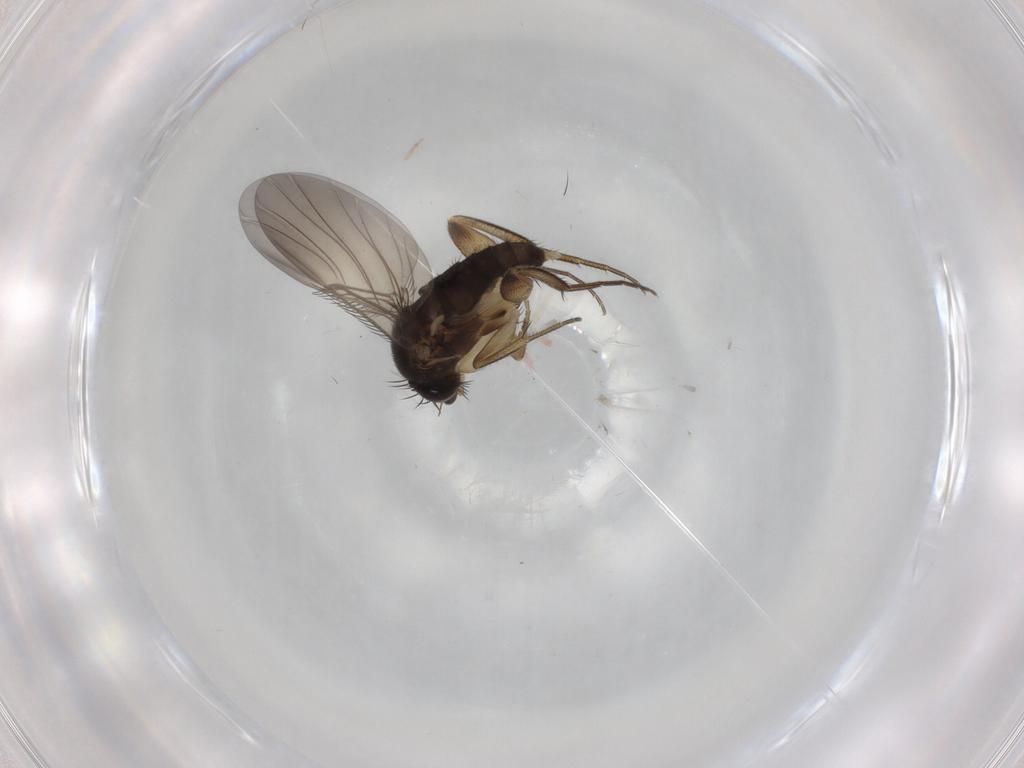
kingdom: Animalia
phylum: Arthropoda
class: Insecta
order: Diptera
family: Phoridae
